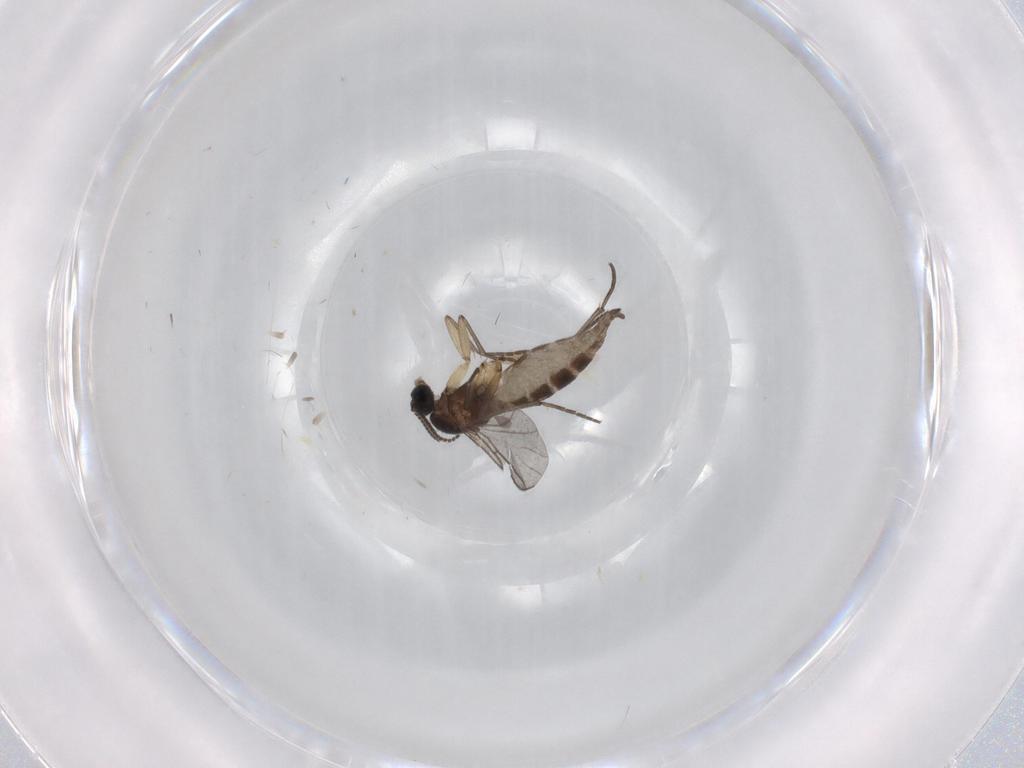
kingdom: Animalia
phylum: Arthropoda
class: Insecta
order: Diptera
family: Sciaridae
